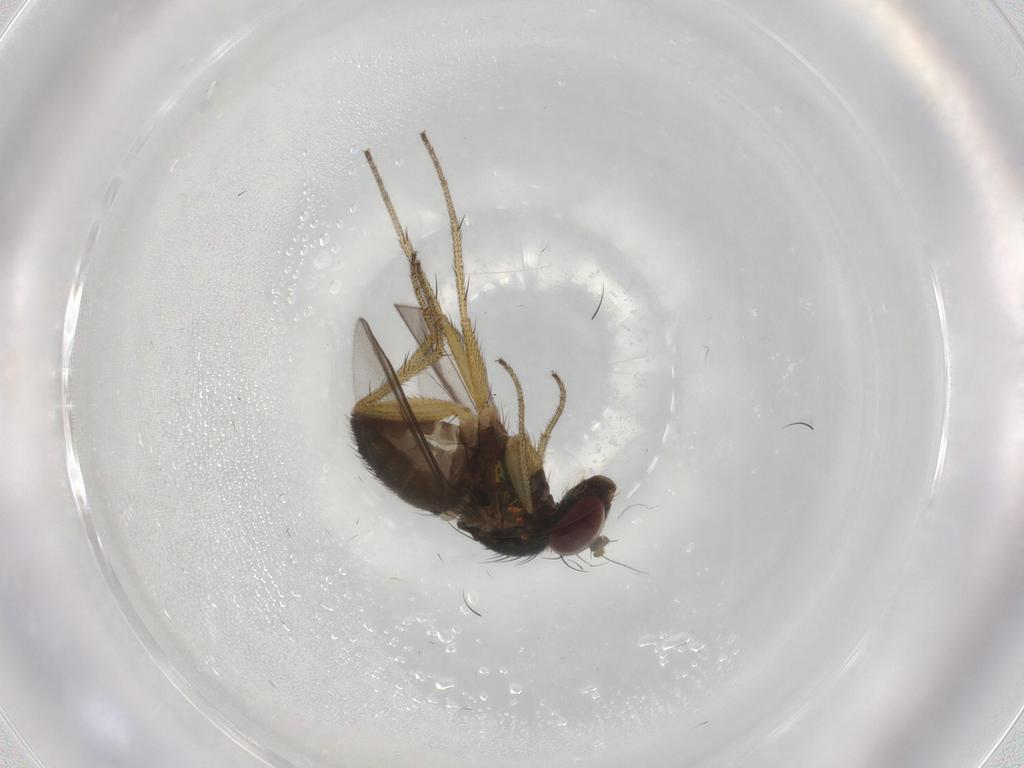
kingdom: Animalia
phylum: Arthropoda
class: Insecta
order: Diptera
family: Dolichopodidae
